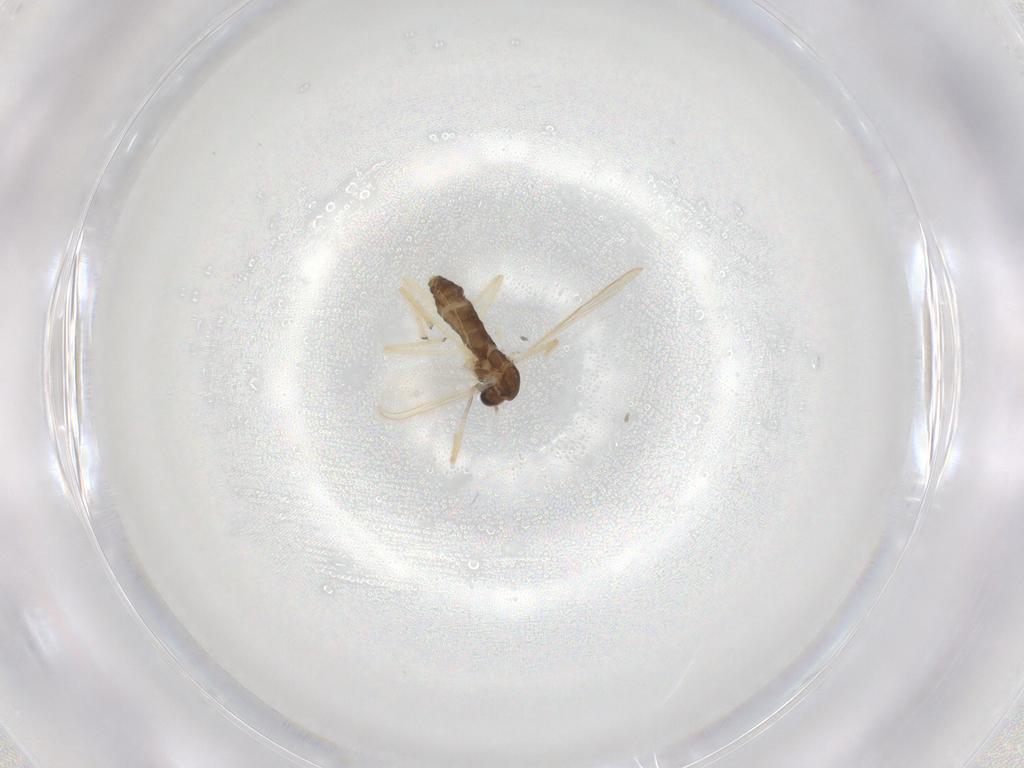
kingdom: Animalia
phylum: Arthropoda
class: Insecta
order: Diptera
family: Chironomidae
